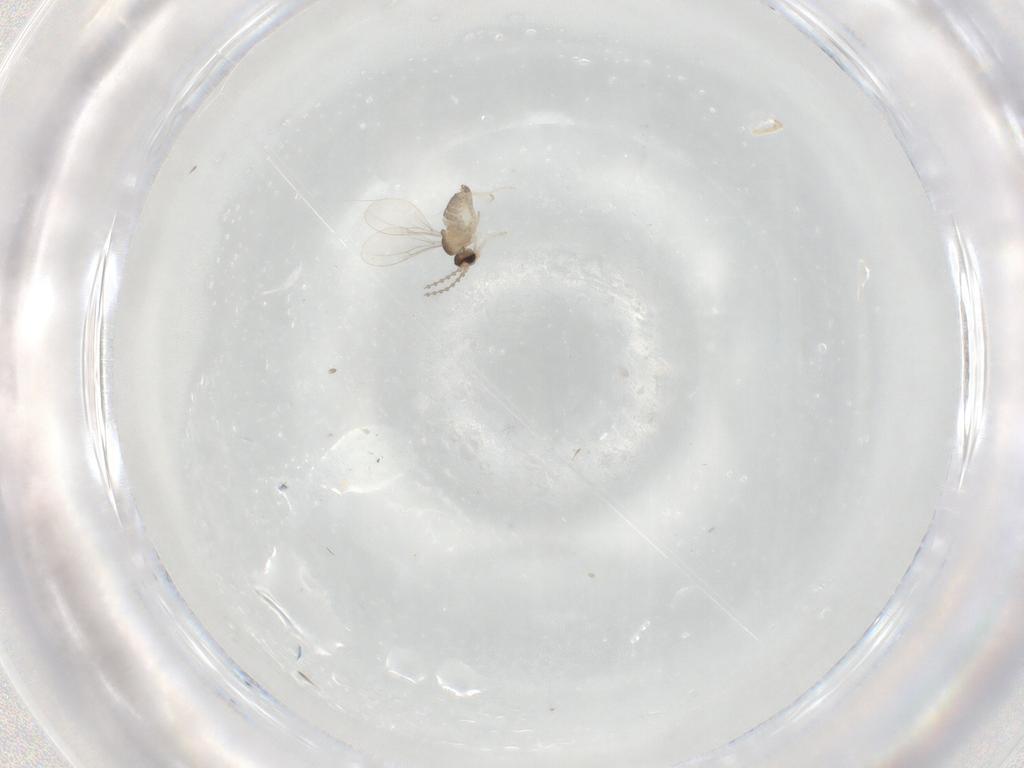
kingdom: Animalia
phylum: Arthropoda
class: Insecta
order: Diptera
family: Cecidomyiidae
